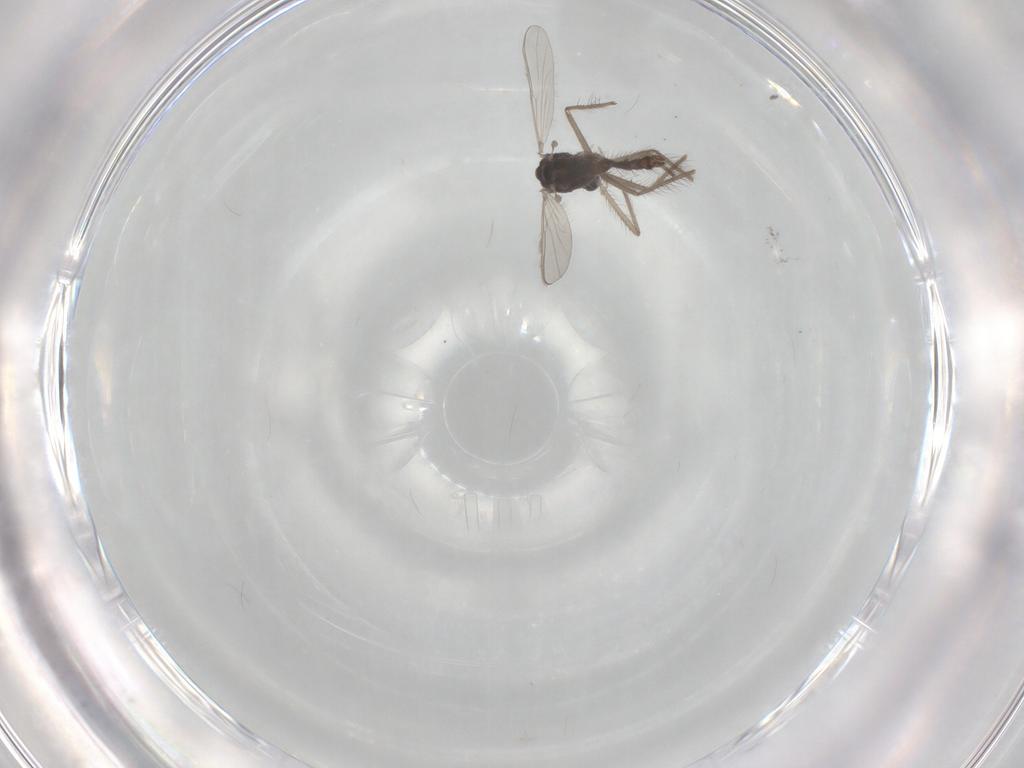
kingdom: Animalia
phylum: Arthropoda
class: Insecta
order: Diptera
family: Chironomidae
